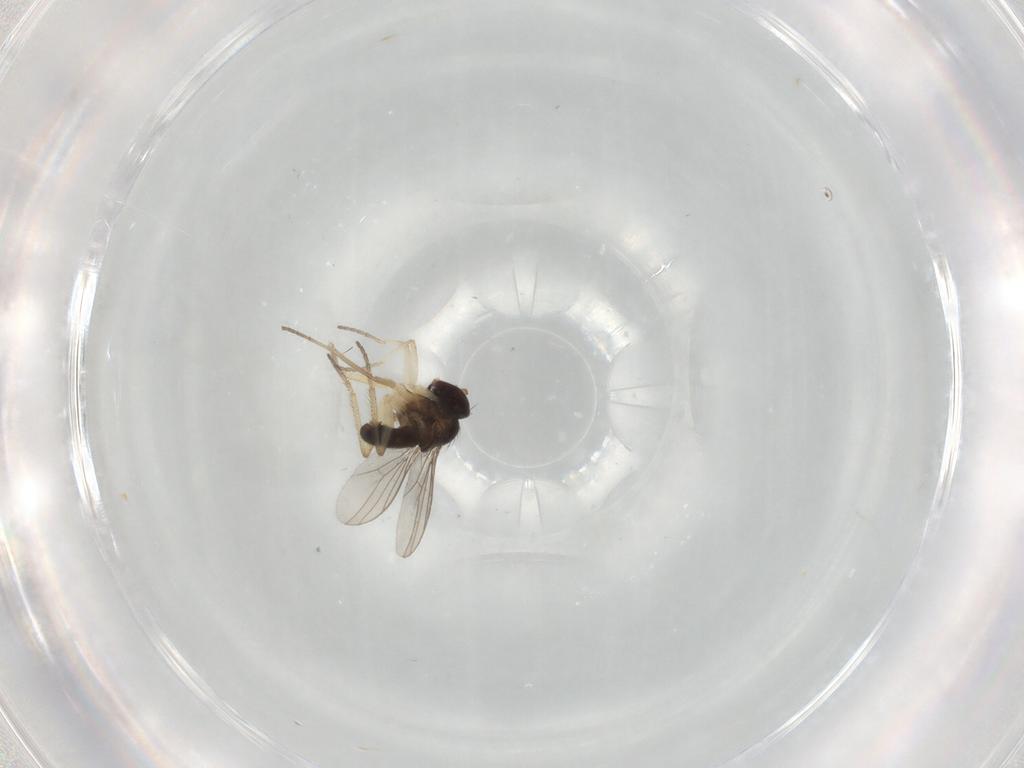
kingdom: Animalia
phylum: Arthropoda
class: Insecta
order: Diptera
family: Dolichopodidae
